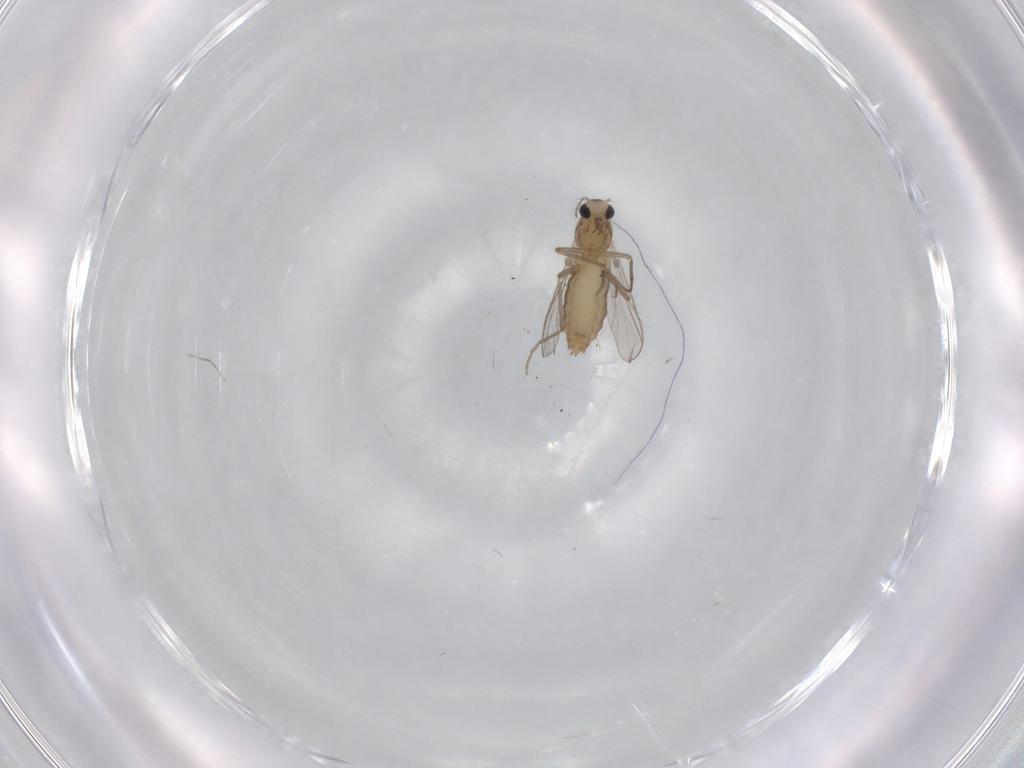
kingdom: Animalia
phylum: Arthropoda
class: Insecta
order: Diptera
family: Chironomidae
